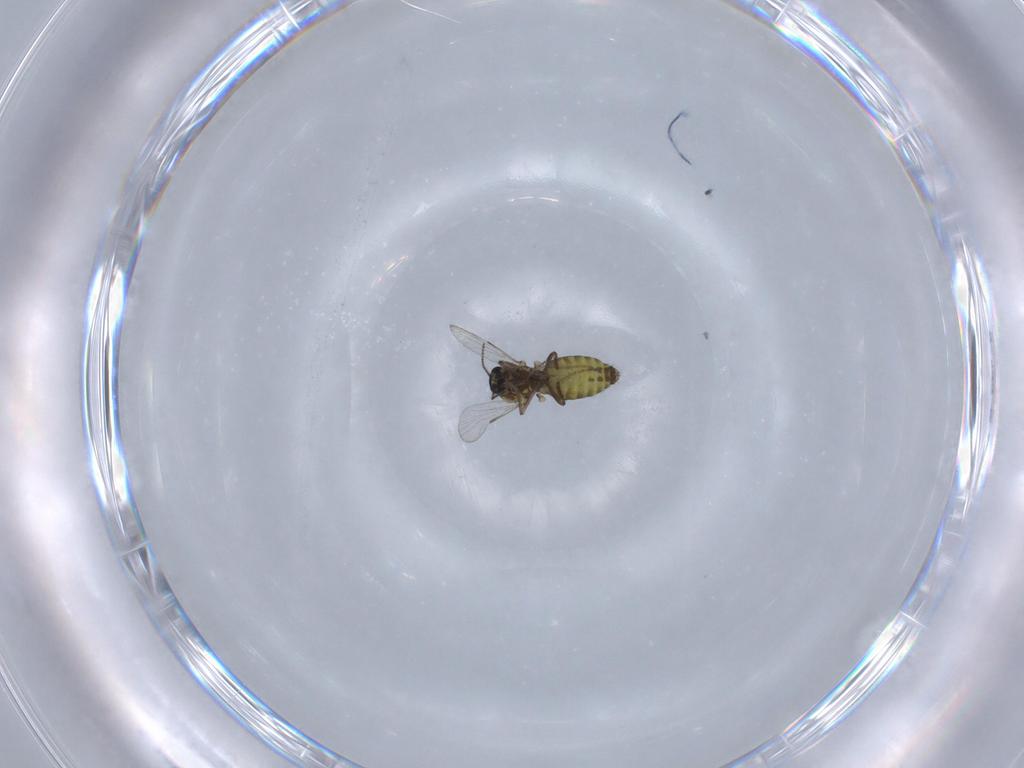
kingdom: Animalia
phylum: Arthropoda
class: Insecta
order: Diptera
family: Ceratopogonidae
